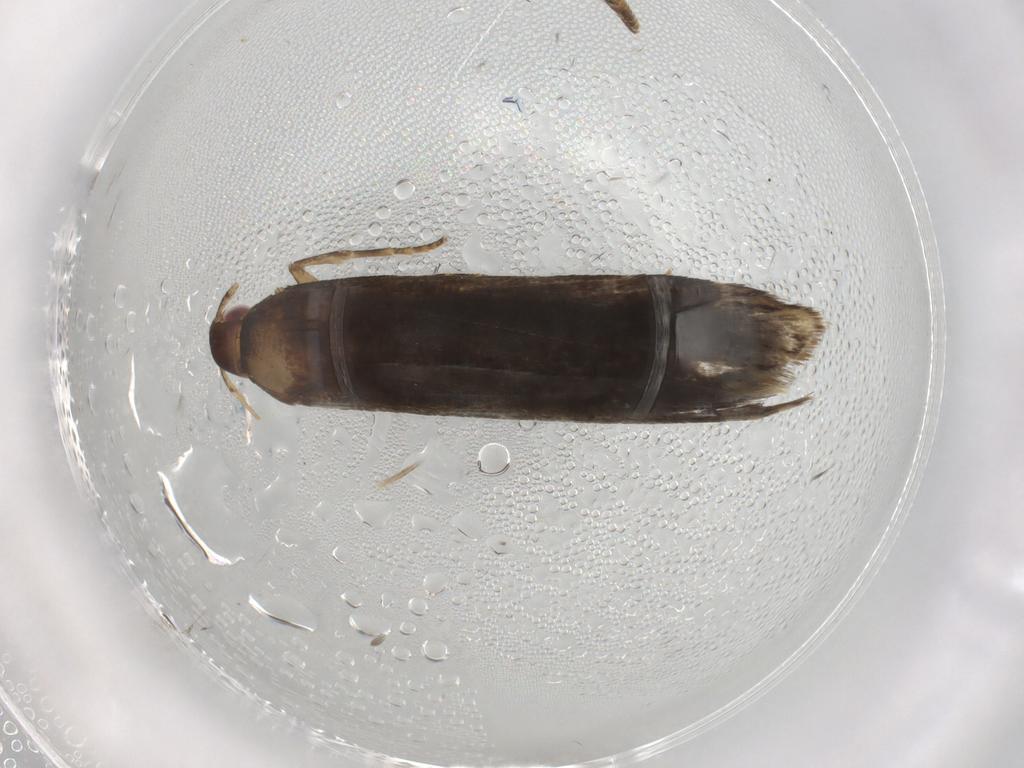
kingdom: Animalia
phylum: Arthropoda
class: Insecta
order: Lepidoptera
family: Gelechiidae
